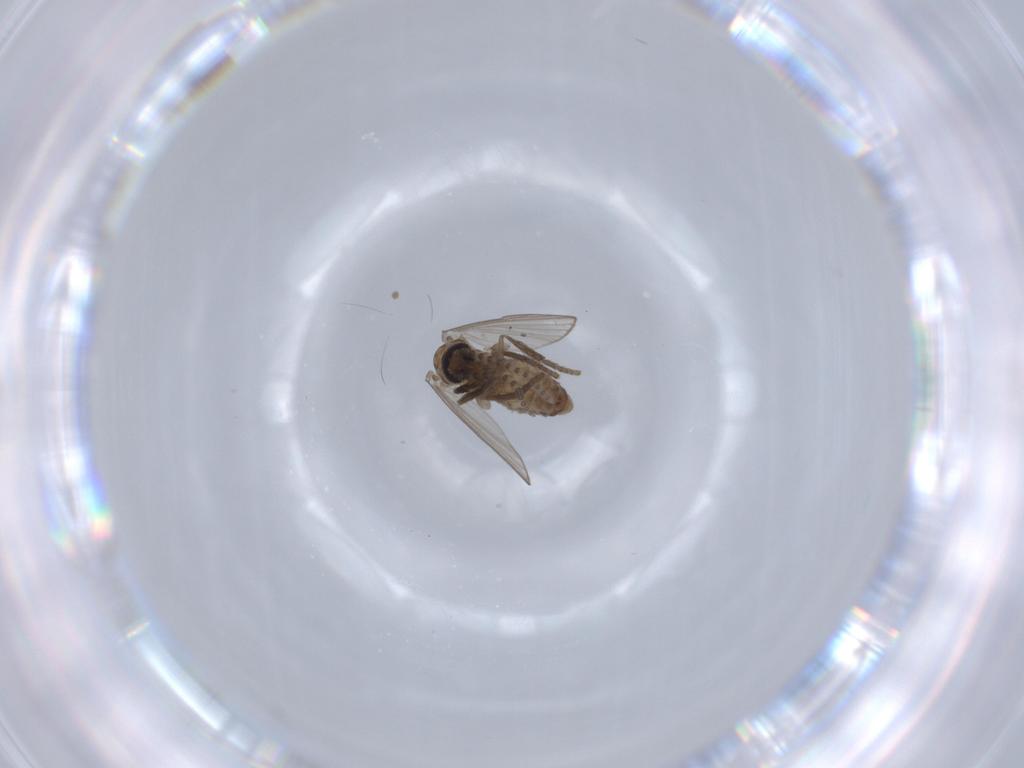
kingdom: Animalia
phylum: Arthropoda
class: Insecta
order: Diptera
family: Psychodidae
